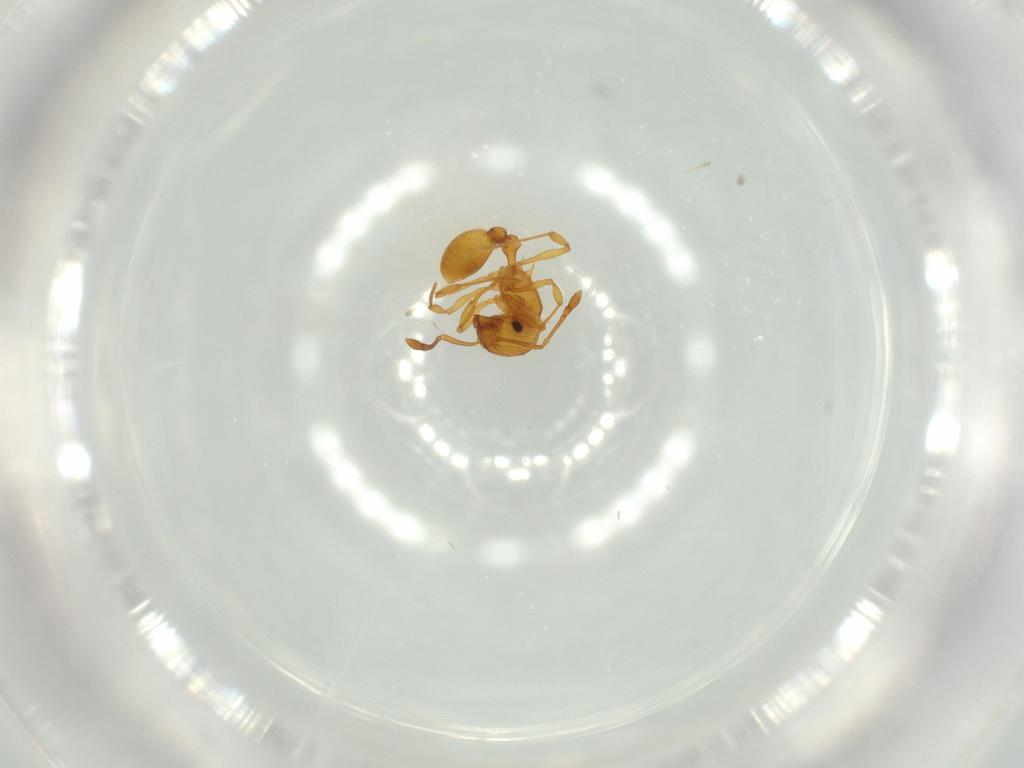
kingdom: Animalia
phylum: Arthropoda
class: Insecta
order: Hymenoptera
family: Formicidae
